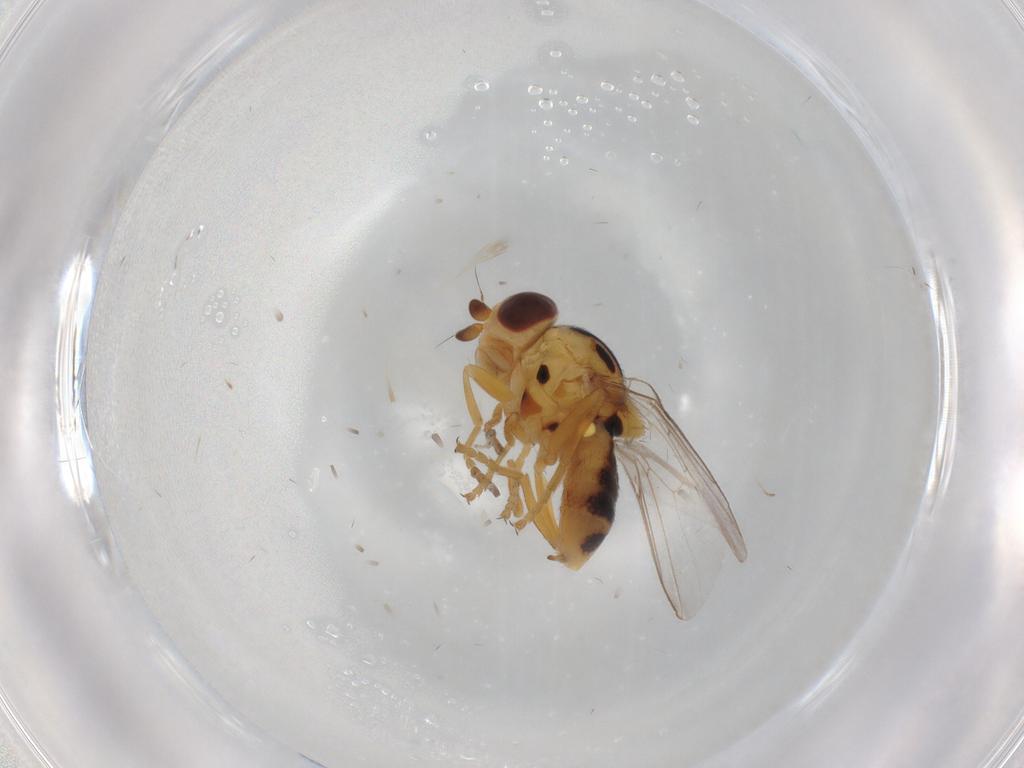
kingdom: Animalia
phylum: Arthropoda
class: Insecta
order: Diptera
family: Chloropidae
